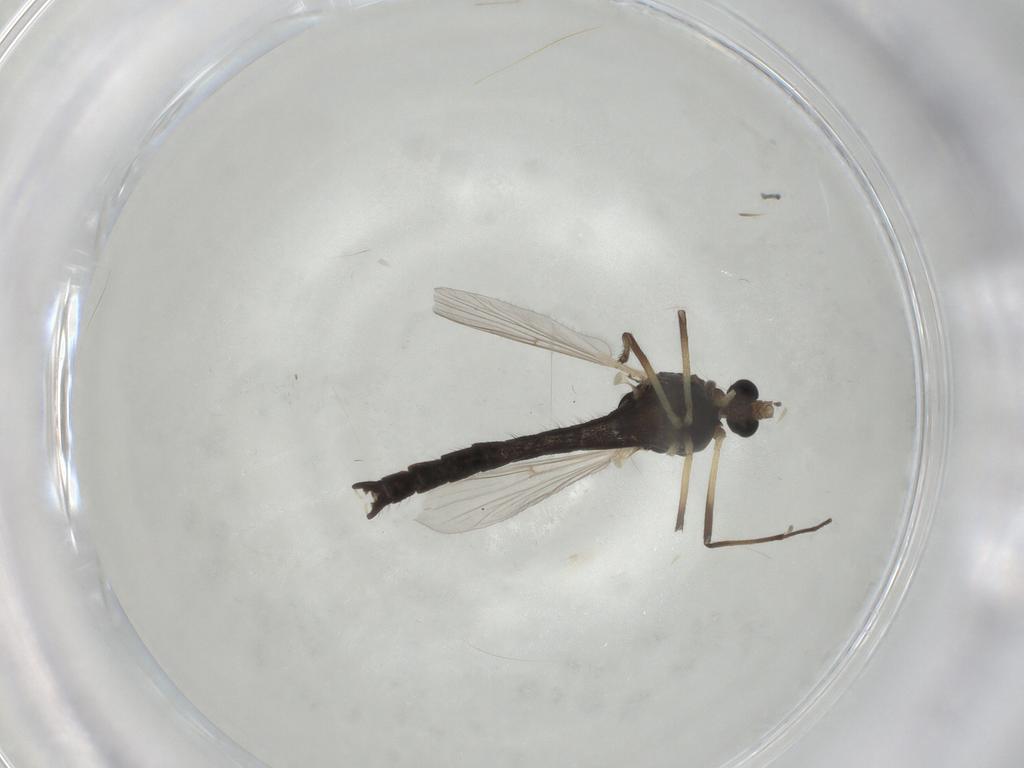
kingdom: Animalia
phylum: Arthropoda
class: Insecta
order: Diptera
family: Chironomidae
